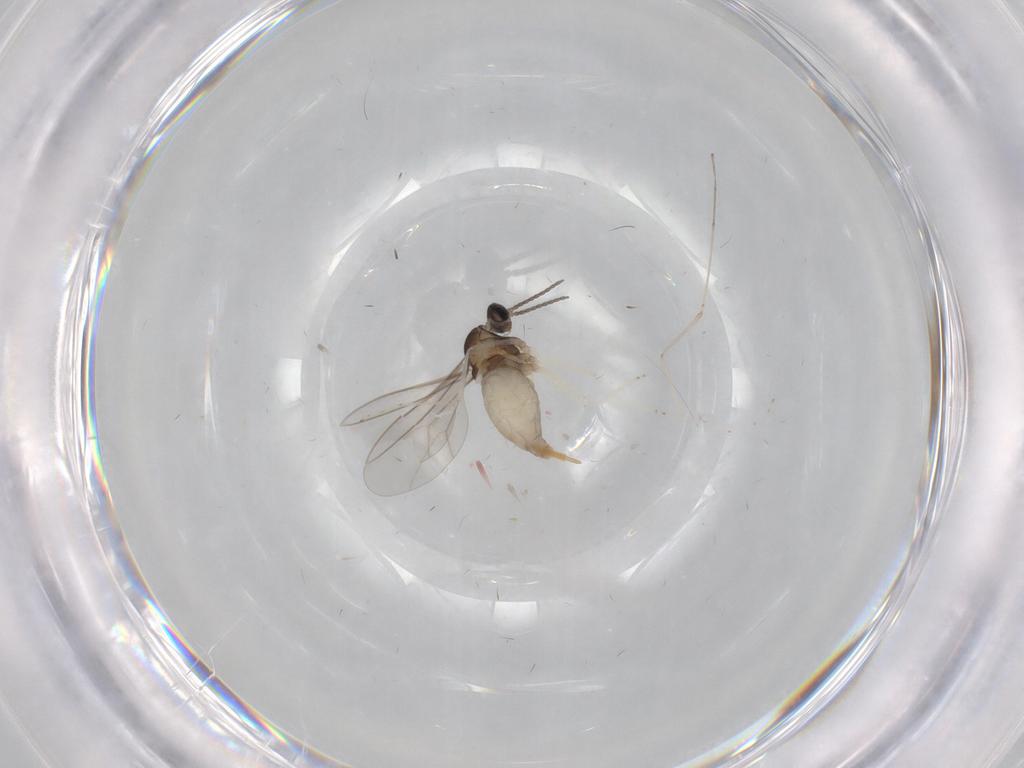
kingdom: Animalia
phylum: Arthropoda
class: Insecta
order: Diptera
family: Cecidomyiidae
